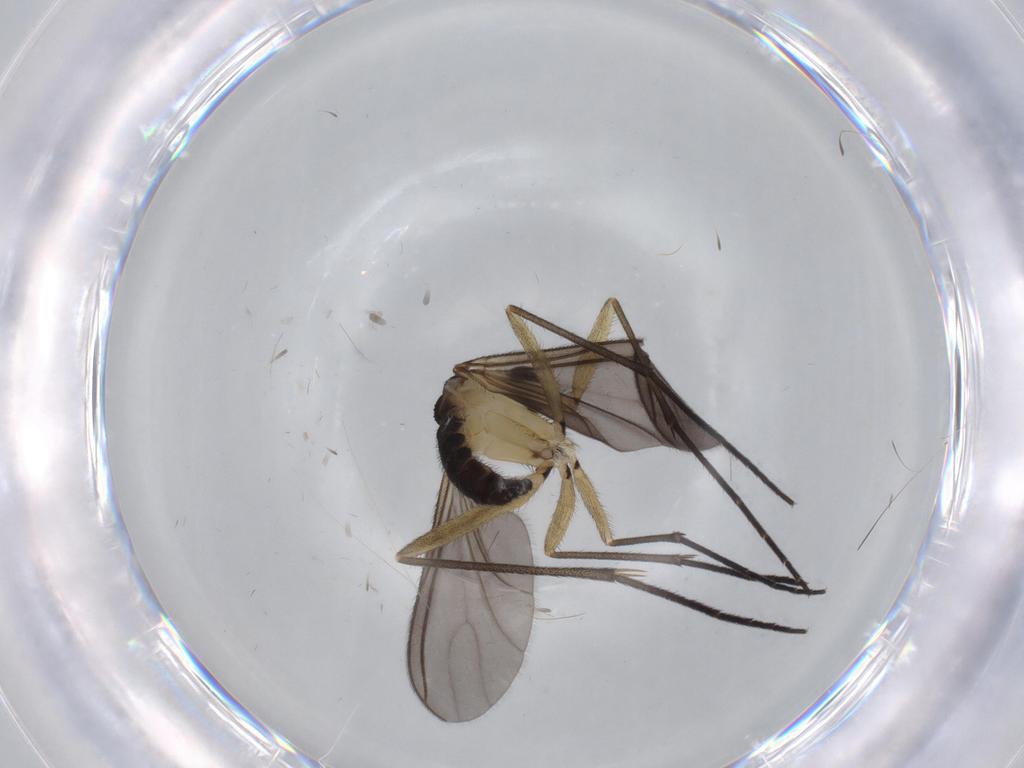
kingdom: Animalia
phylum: Arthropoda
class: Insecta
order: Diptera
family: Sciaridae
